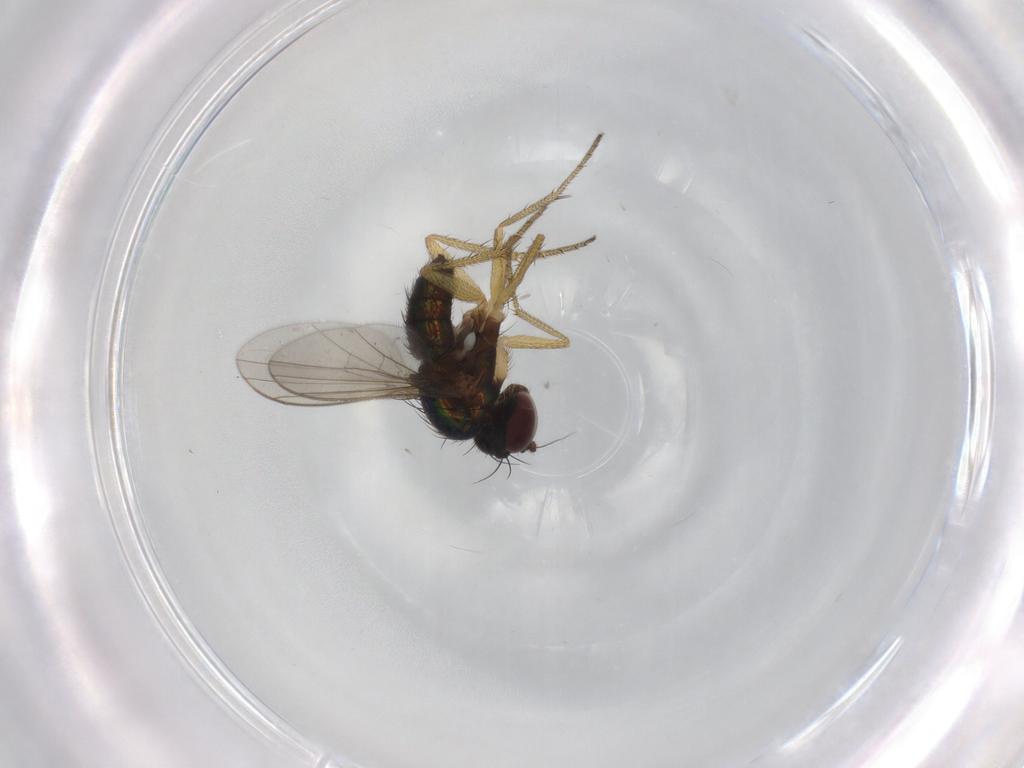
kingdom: Animalia
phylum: Arthropoda
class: Insecta
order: Diptera
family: Dolichopodidae
